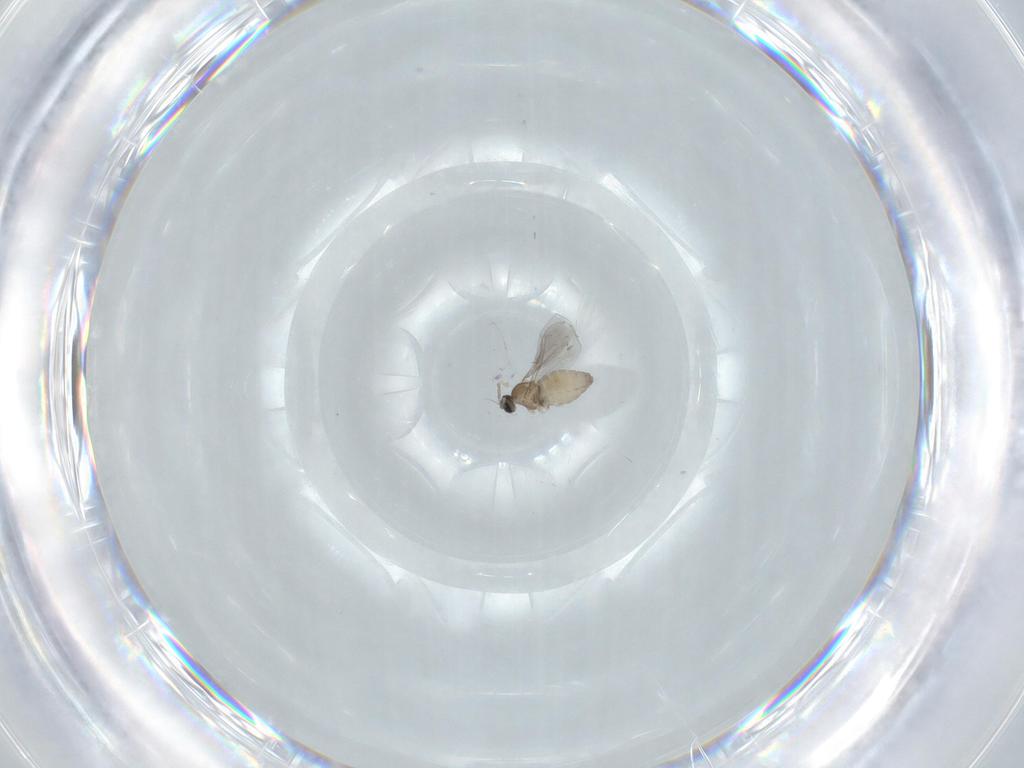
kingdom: Animalia
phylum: Arthropoda
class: Insecta
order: Diptera
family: Cecidomyiidae
